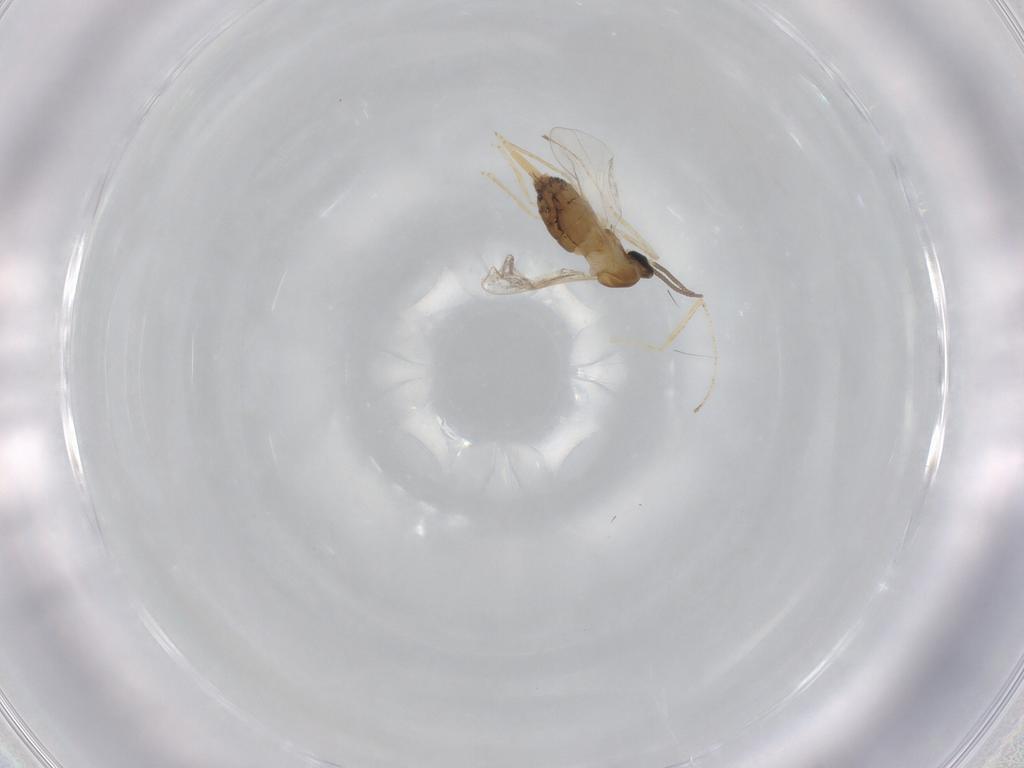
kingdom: Animalia
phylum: Arthropoda
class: Insecta
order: Diptera
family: Cecidomyiidae
